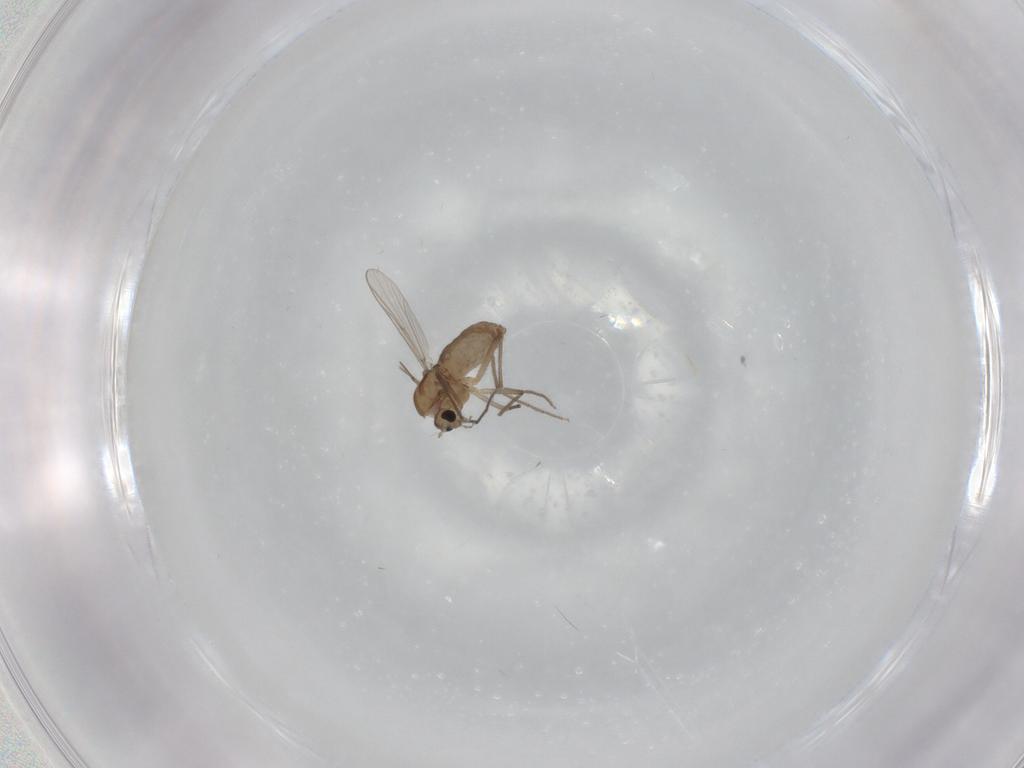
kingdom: Animalia
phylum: Arthropoda
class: Insecta
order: Diptera
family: Chironomidae
